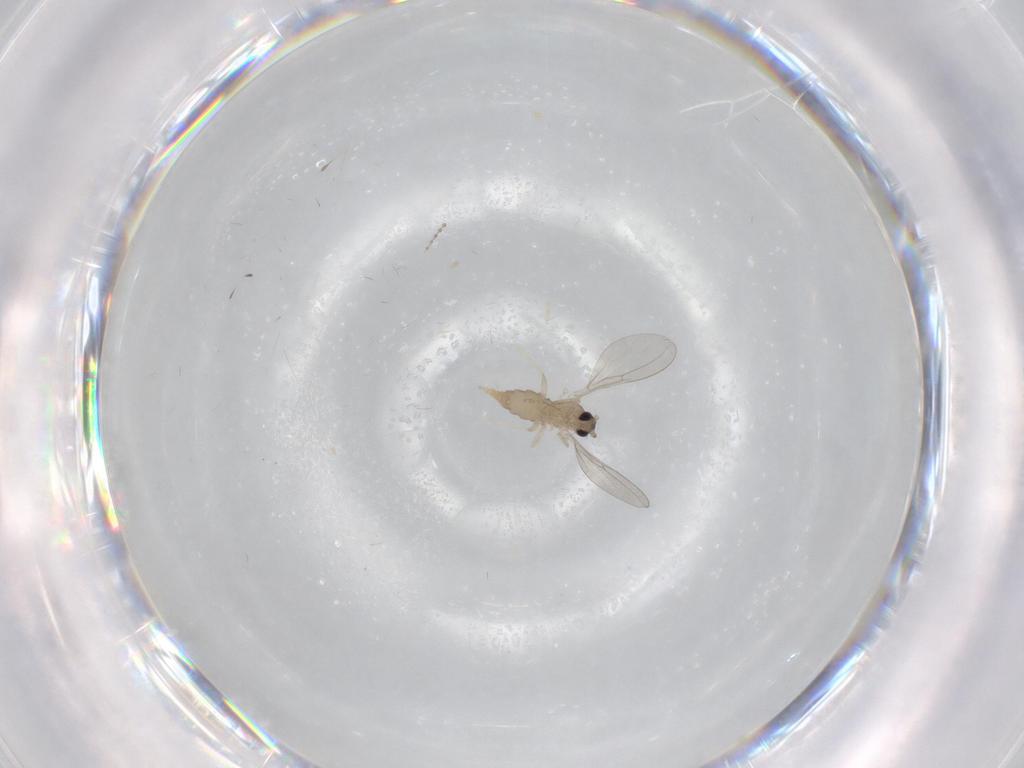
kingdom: Animalia
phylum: Arthropoda
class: Insecta
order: Diptera
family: Cecidomyiidae
